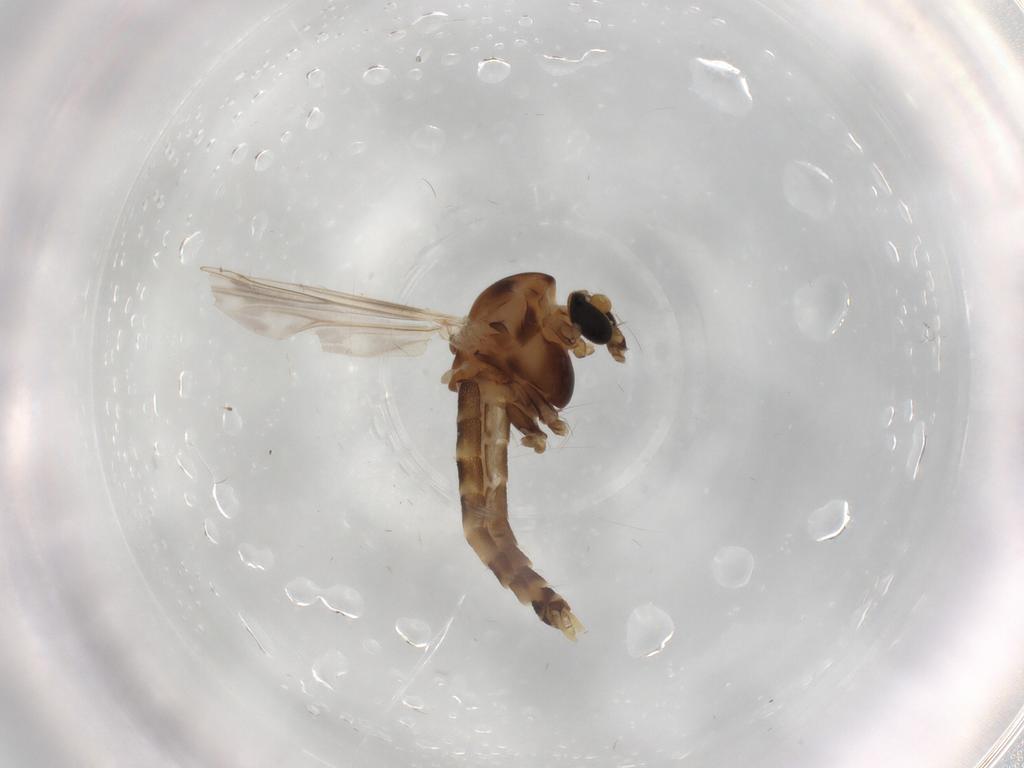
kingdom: Animalia
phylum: Arthropoda
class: Insecta
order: Diptera
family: Chironomidae
